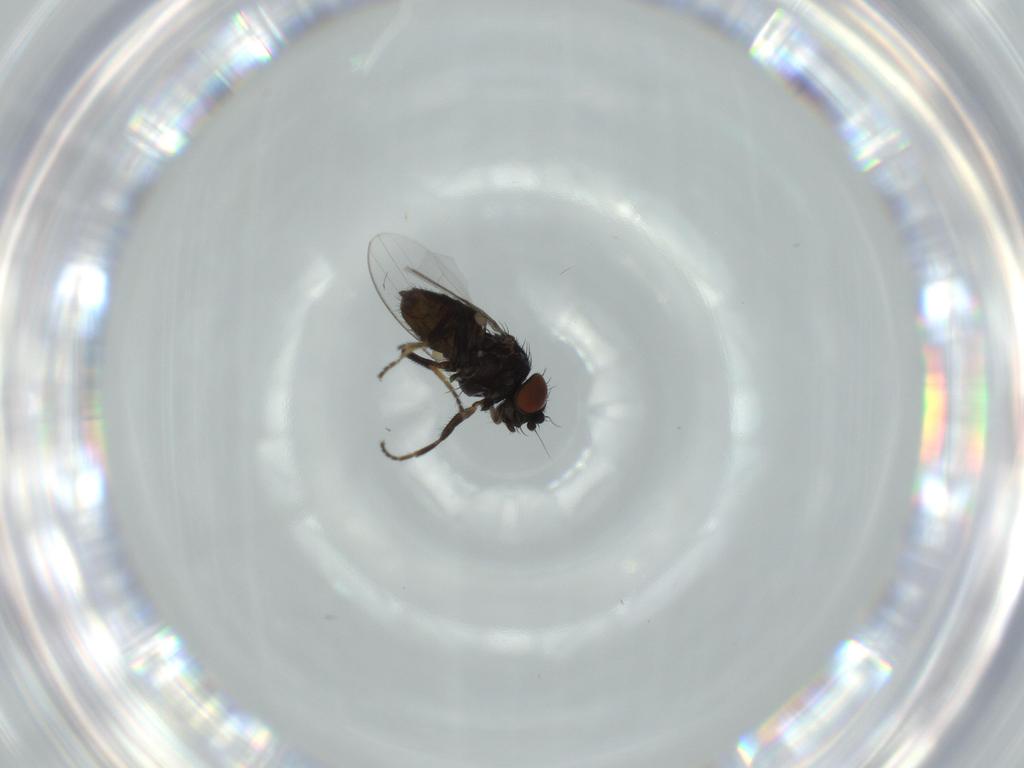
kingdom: Animalia
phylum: Arthropoda
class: Insecta
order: Diptera
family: Milichiidae
